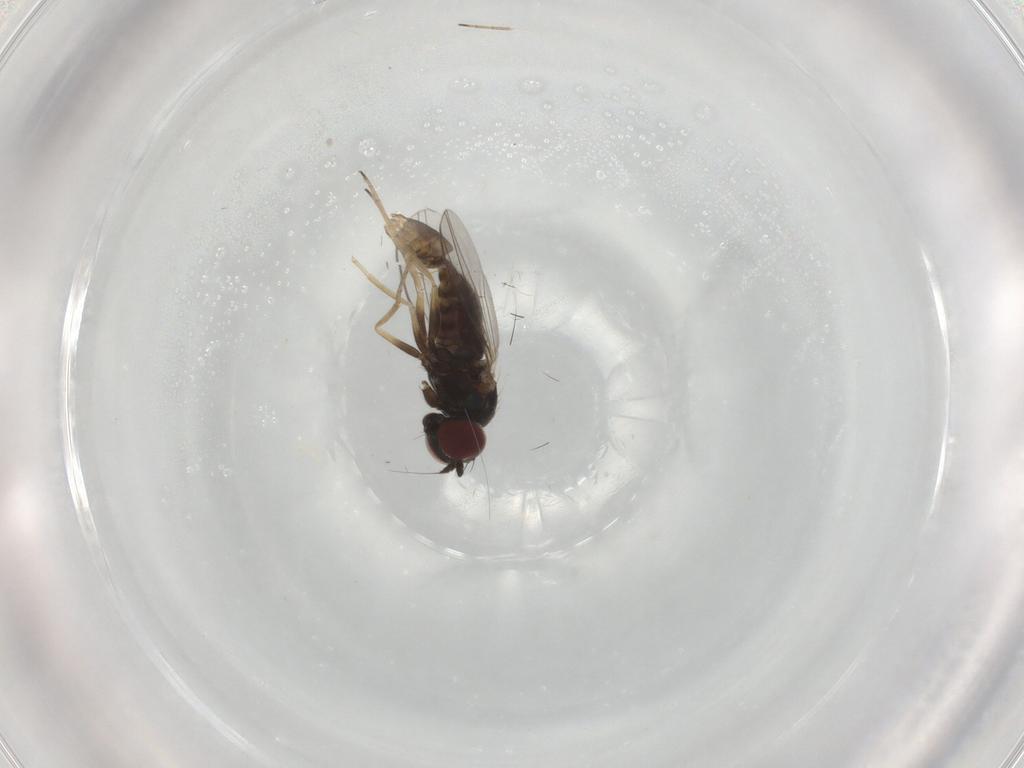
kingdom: Animalia
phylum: Arthropoda
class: Insecta
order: Diptera
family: Dolichopodidae
